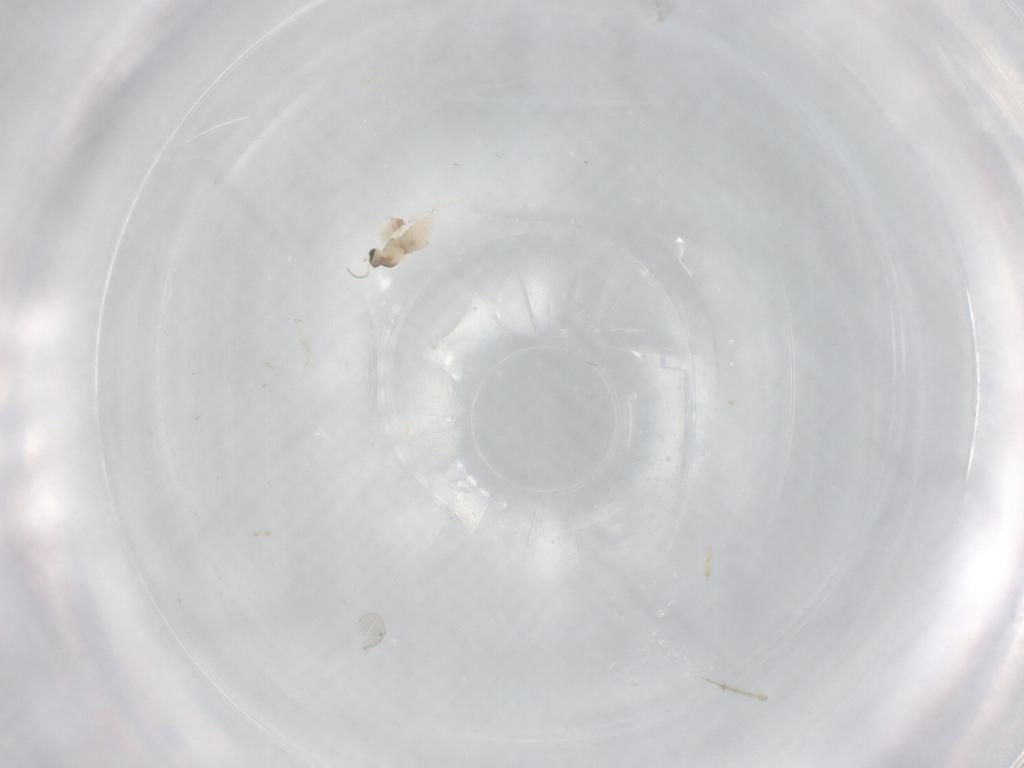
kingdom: Animalia
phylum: Arthropoda
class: Insecta
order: Diptera
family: Cecidomyiidae
